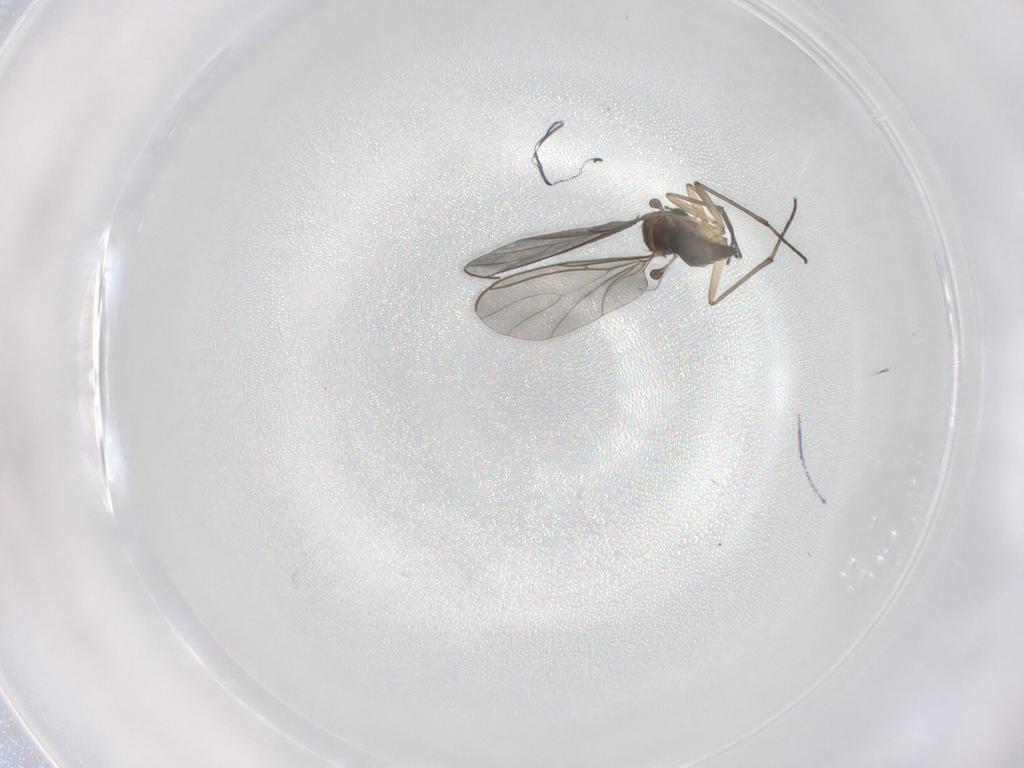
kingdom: Animalia
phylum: Arthropoda
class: Insecta
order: Diptera
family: Sciaridae
